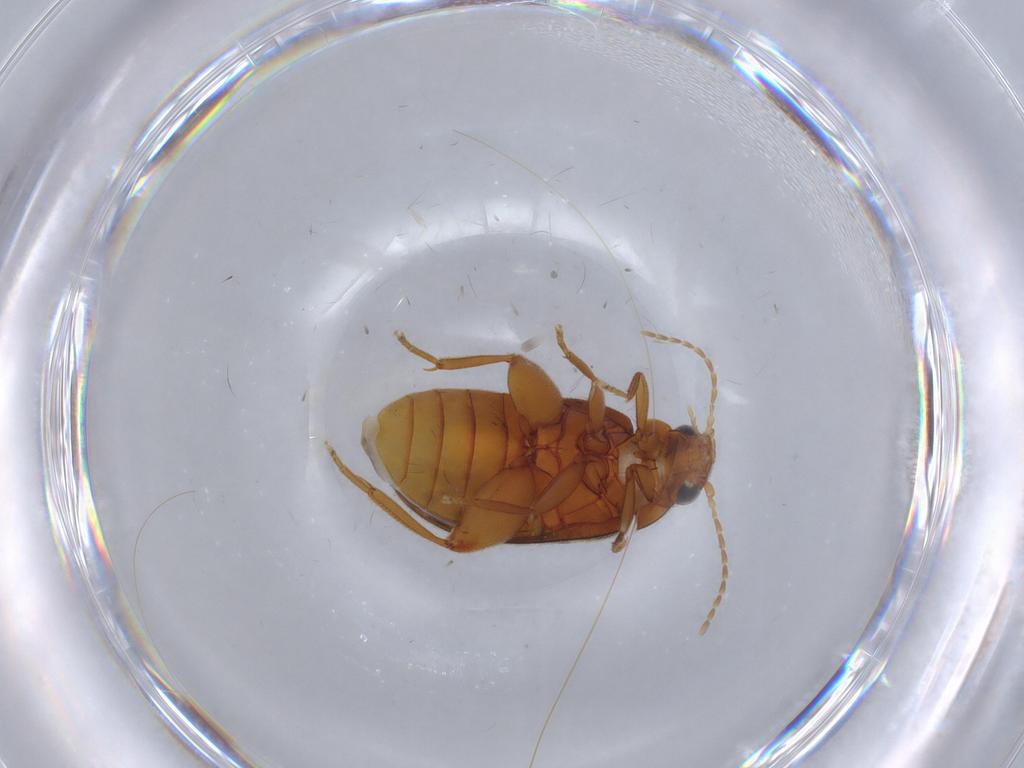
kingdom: Animalia
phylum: Arthropoda
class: Insecta
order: Coleoptera
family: Scirtidae
